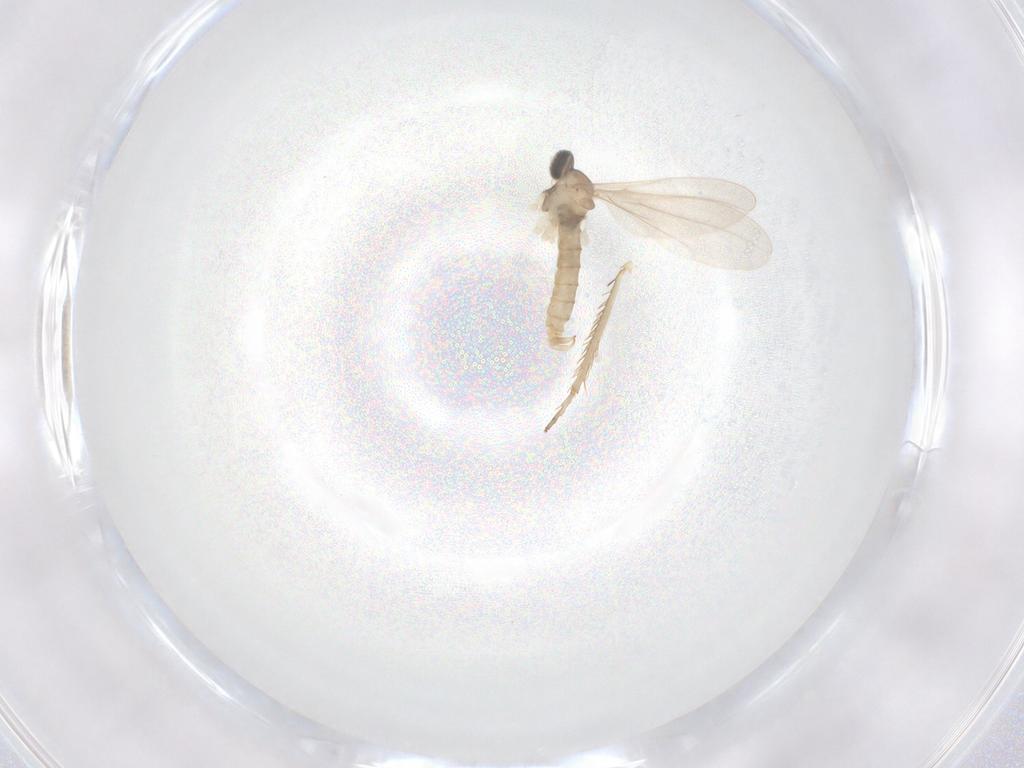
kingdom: Animalia
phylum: Arthropoda
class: Insecta
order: Diptera
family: Cecidomyiidae
